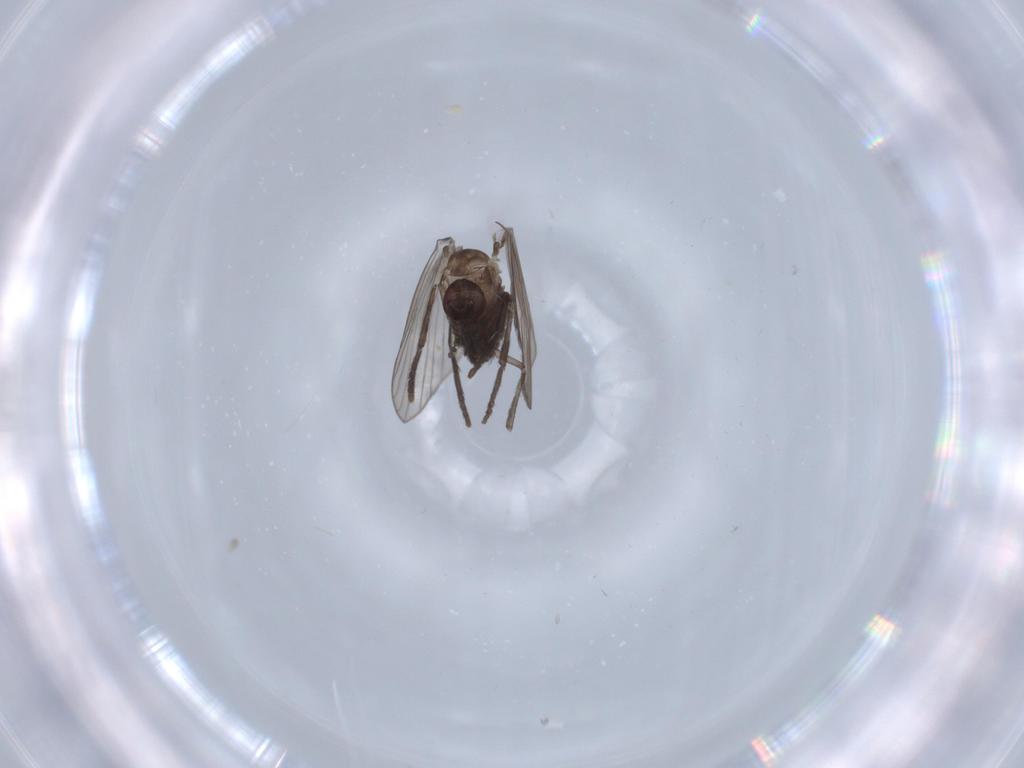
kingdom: Animalia
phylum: Arthropoda
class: Insecta
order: Diptera
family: Psychodidae
